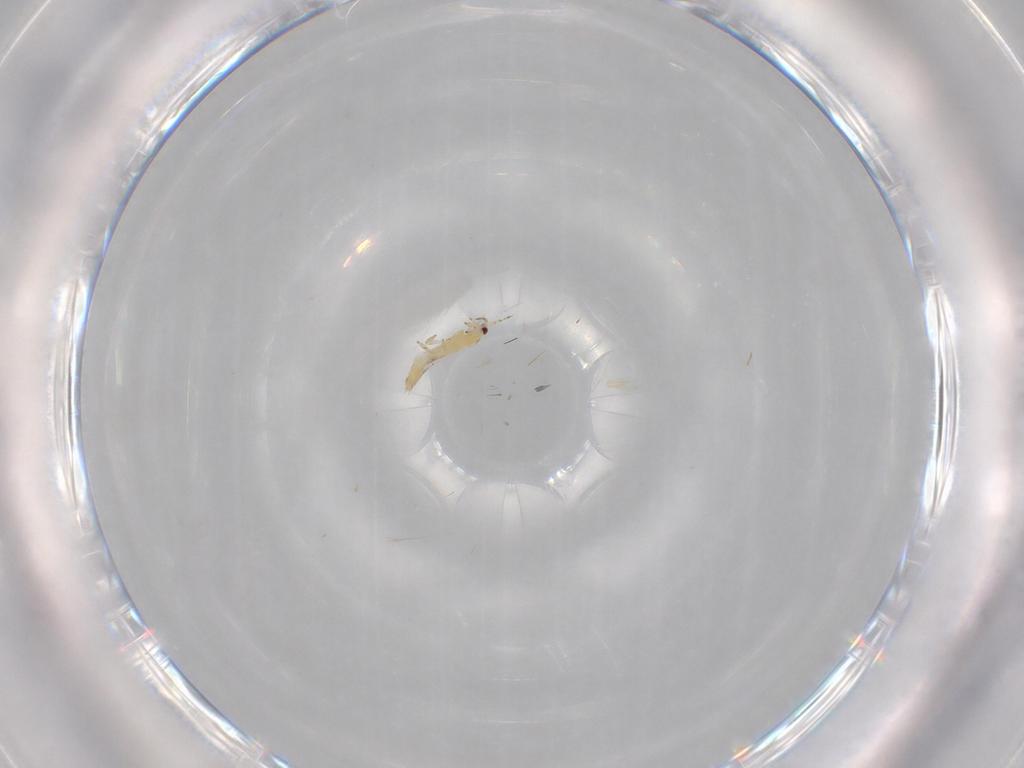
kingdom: Animalia
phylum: Arthropoda
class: Insecta
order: Thysanoptera
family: Thripidae
